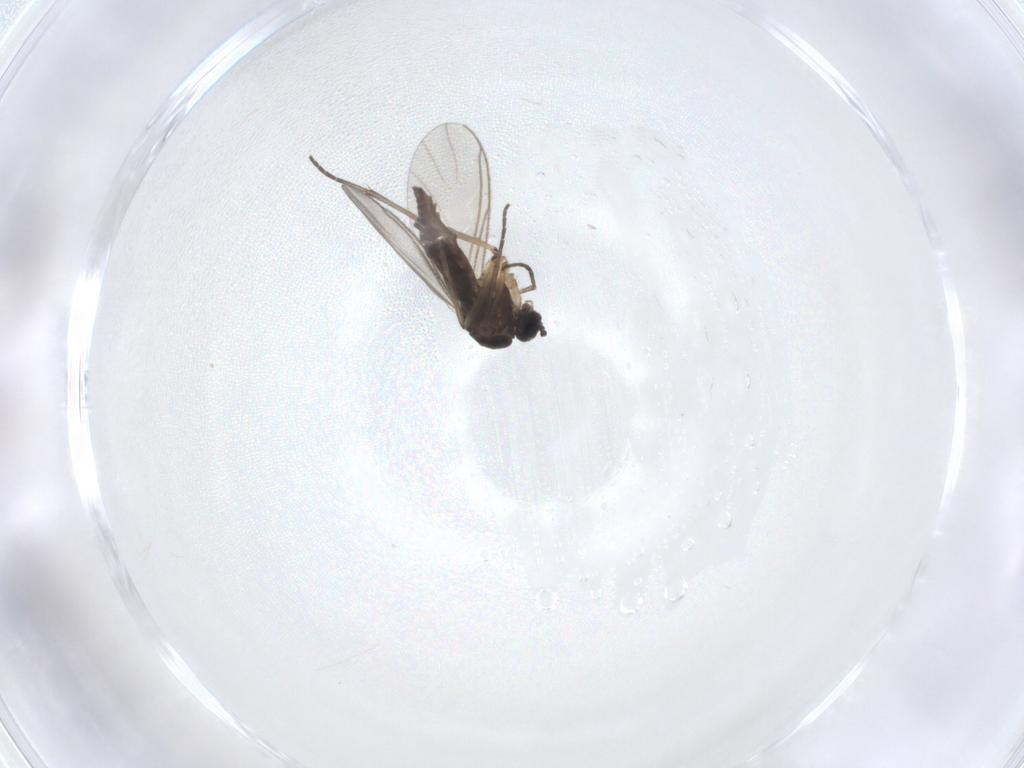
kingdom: Animalia
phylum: Arthropoda
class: Insecta
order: Diptera
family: Sciaridae
